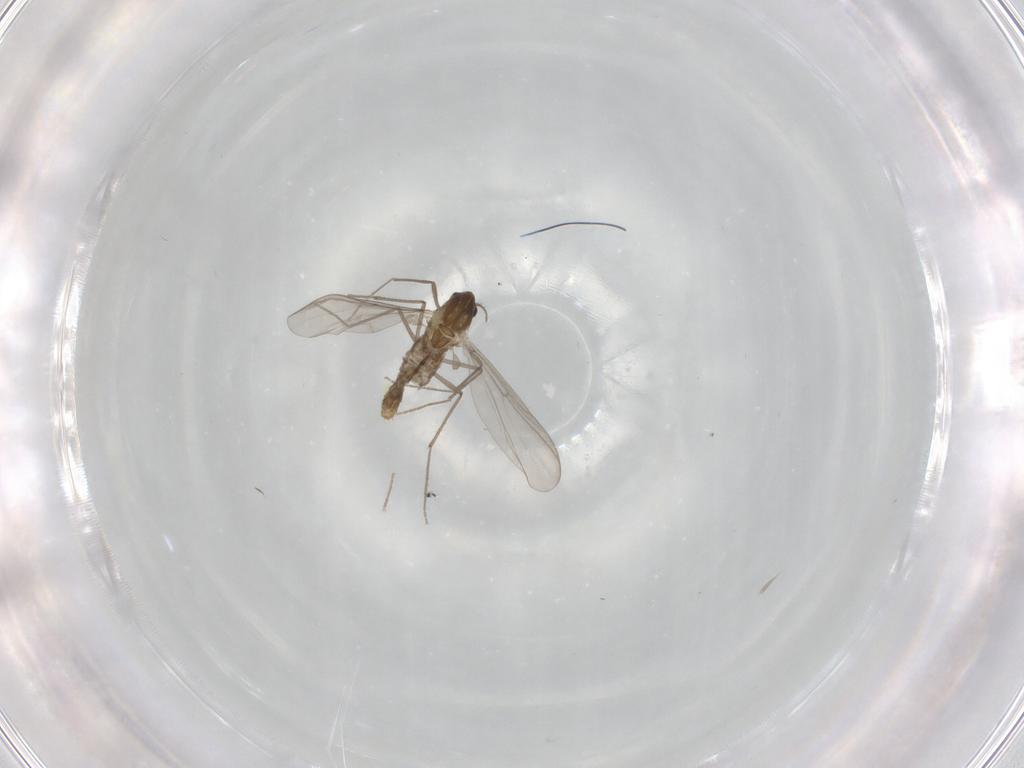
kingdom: Animalia
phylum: Arthropoda
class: Insecta
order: Diptera
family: Chironomidae
